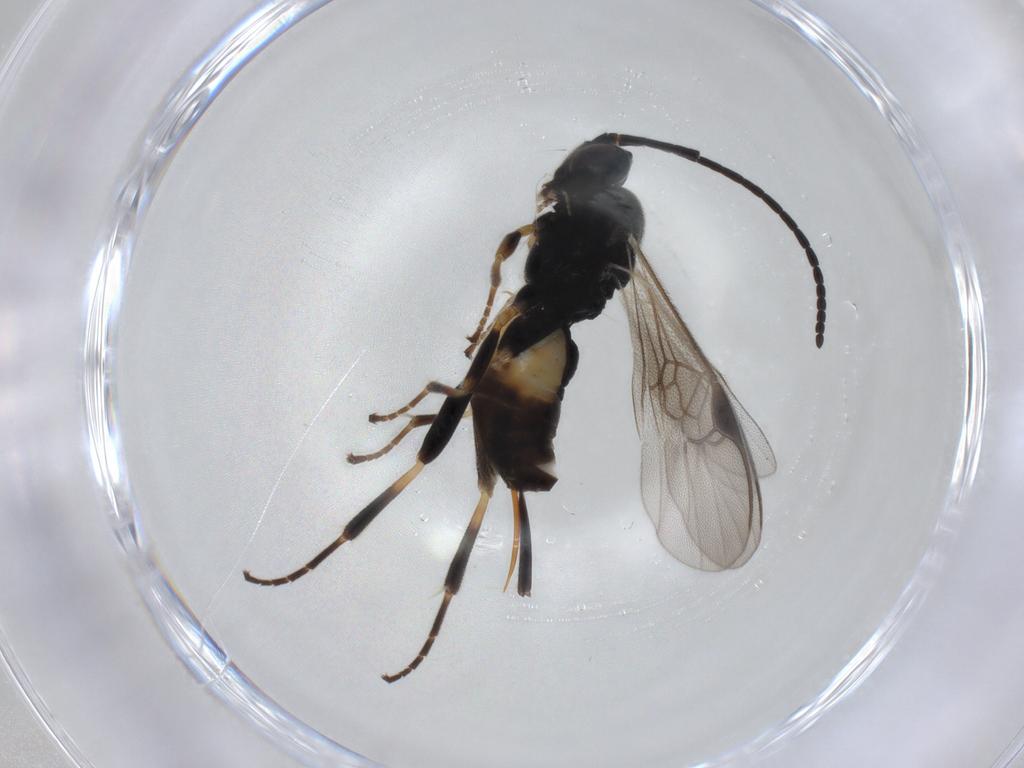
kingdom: Animalia
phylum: Arthropoda
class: Insecta
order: Hymenoptera
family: Braconidae
